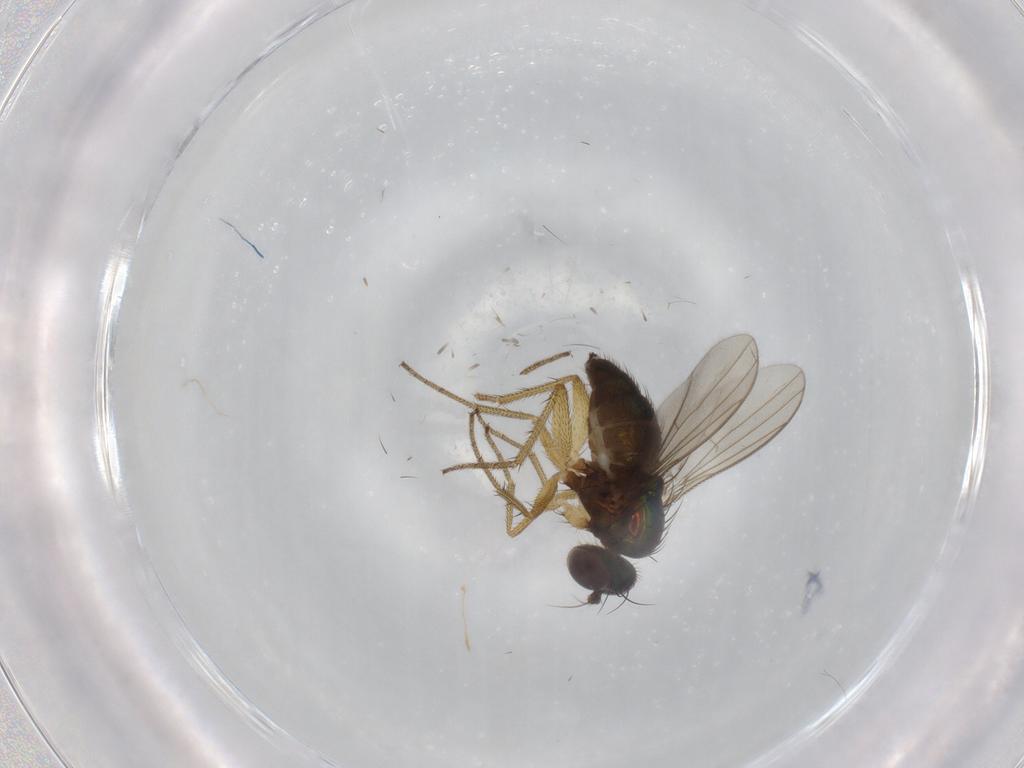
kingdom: Animalia
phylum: Arthropoda
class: Insecta
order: Diptera
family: Dolichopodidae
